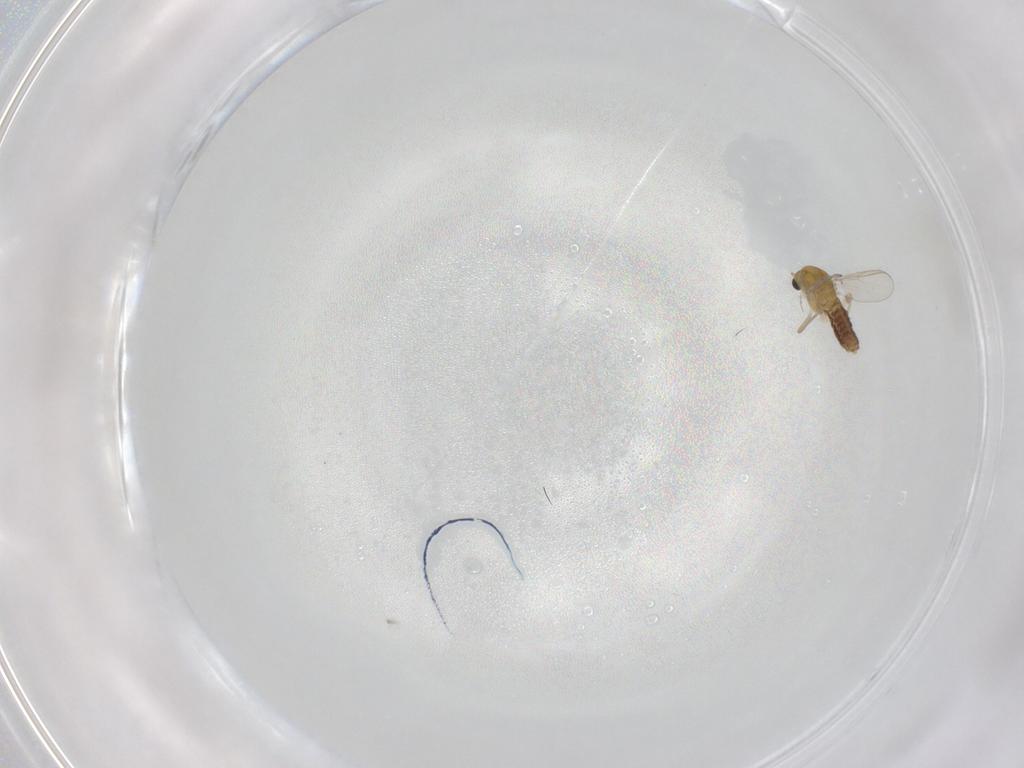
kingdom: Animalia
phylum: Arthropoda
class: Insecta
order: Diptera
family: Chironomidae
